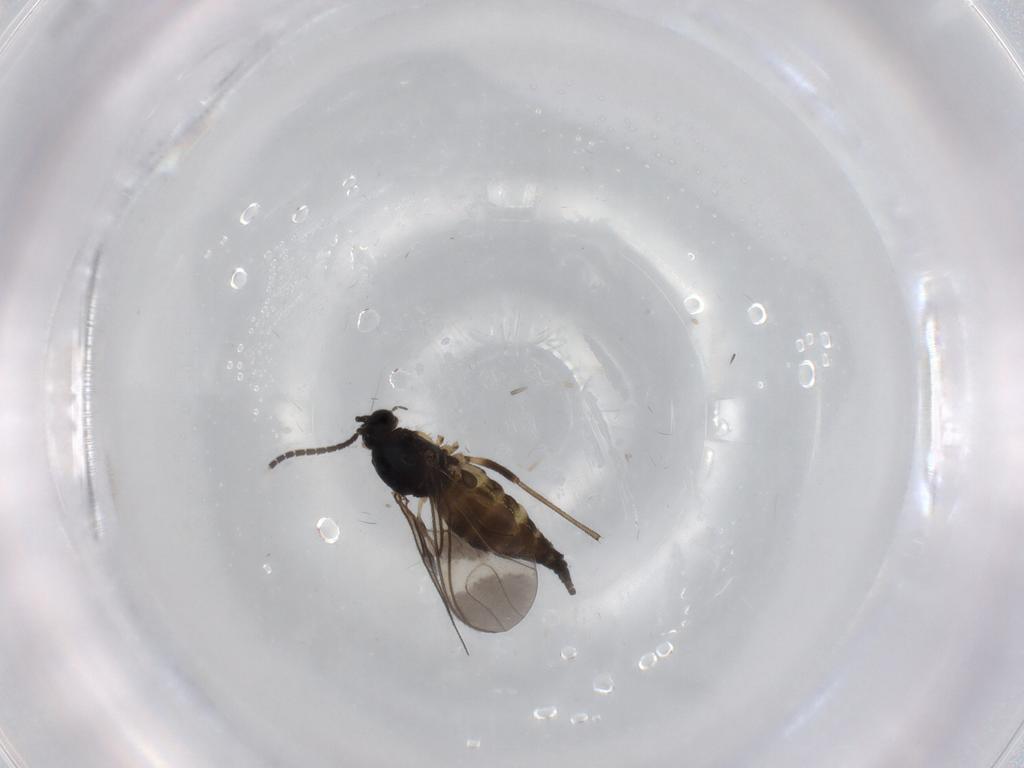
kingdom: Animalia
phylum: Arthropoda
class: Insecta
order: Diptera
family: Sciaridae
